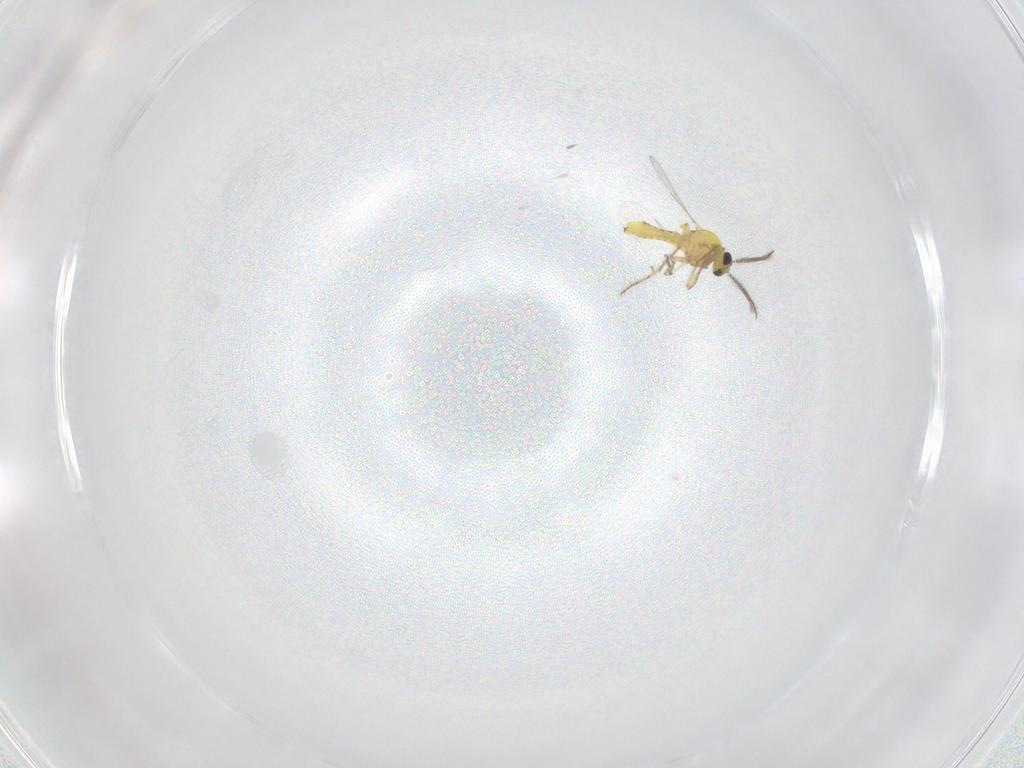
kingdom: Animalia
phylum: Arthropoda
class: Insecta
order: Diptera
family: Ceratopogonidae
